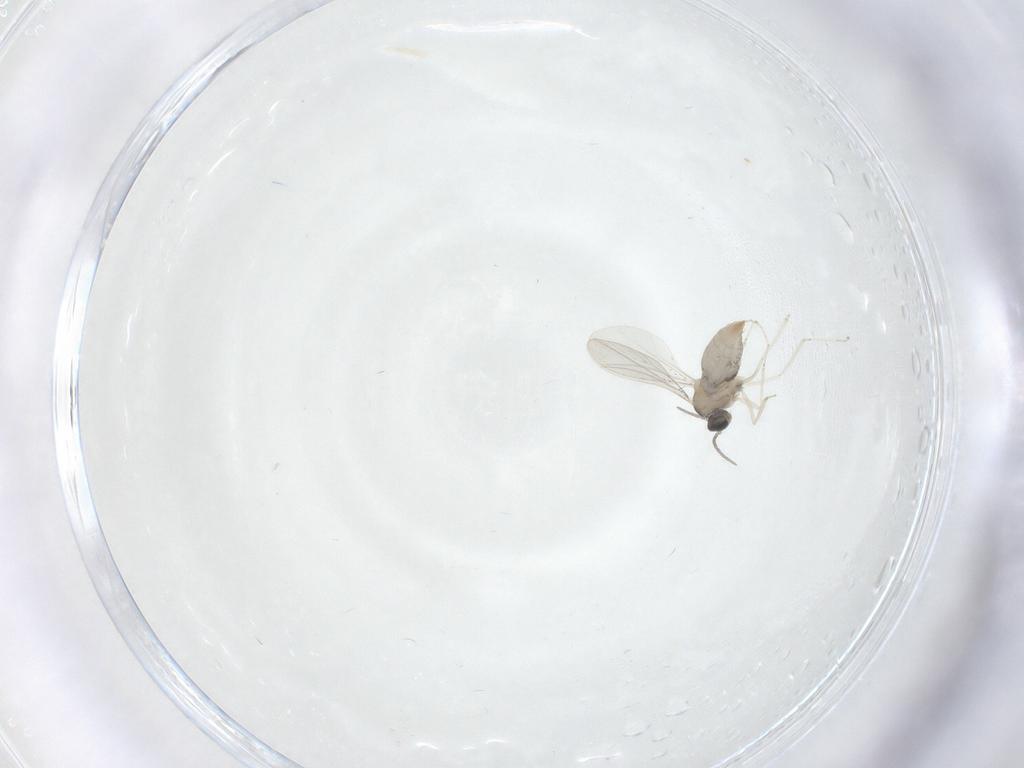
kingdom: Animalia
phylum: Arthropoda
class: Insecta
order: Diptera
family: Cecidomyiidae
